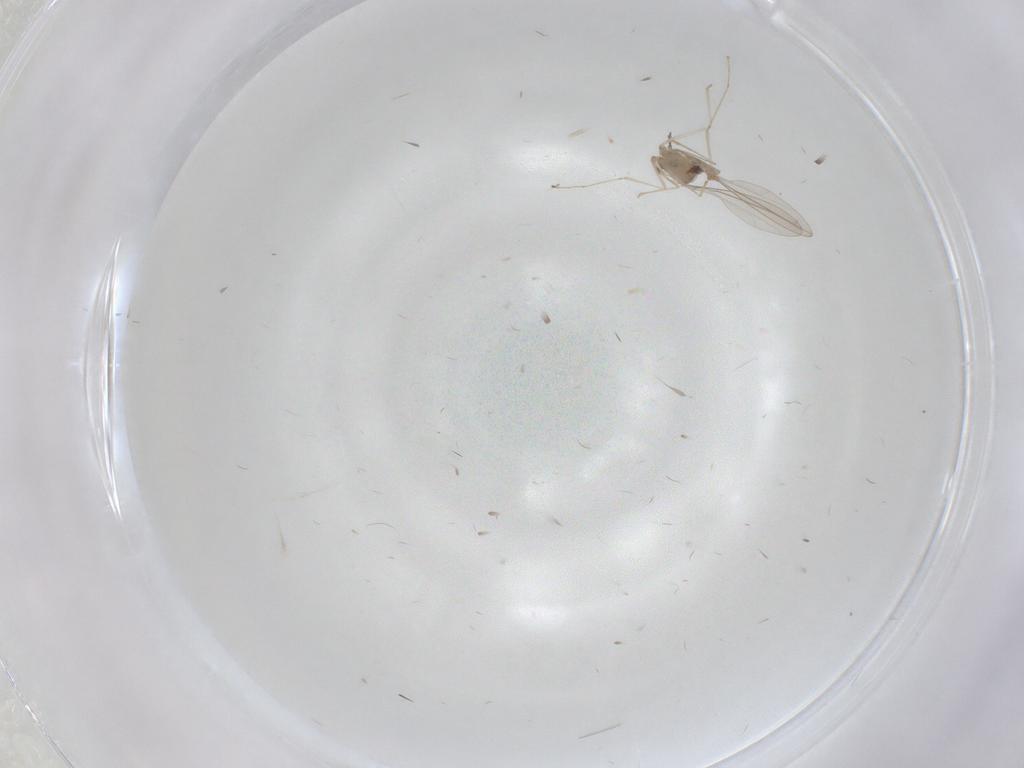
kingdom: Animalia
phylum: Arthropoda
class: Insecta
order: Diptera
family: Cecidomyiidae
